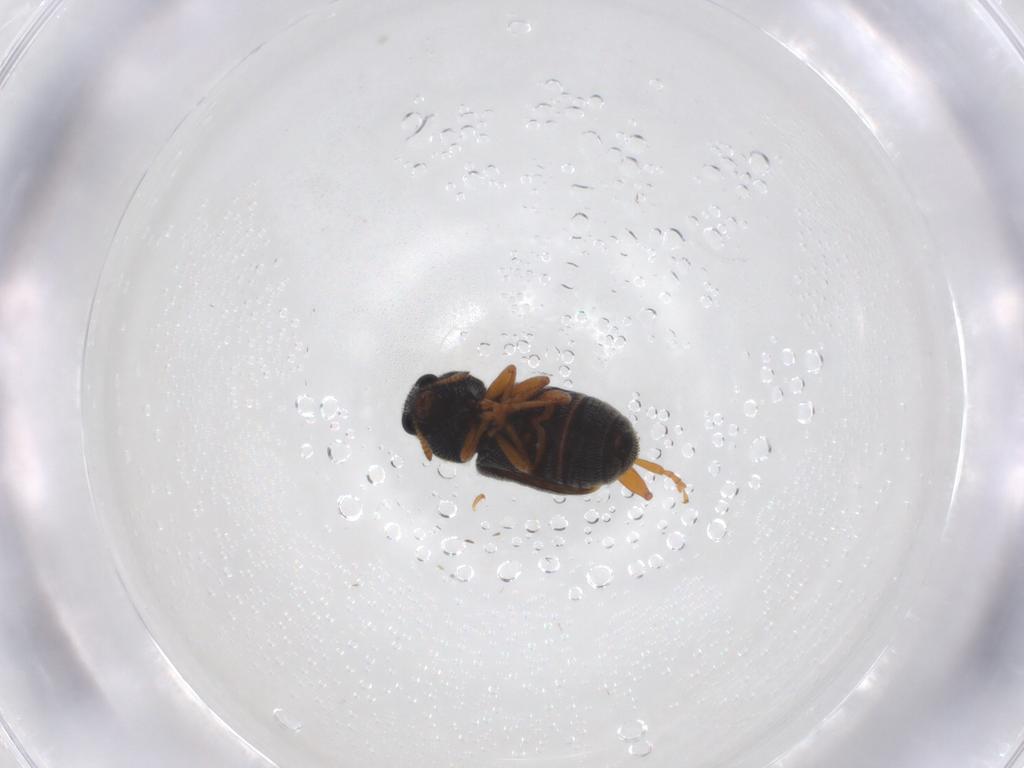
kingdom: Animalia
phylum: Arthropoda
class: Insecta
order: Coleoptera
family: Anthribidae
